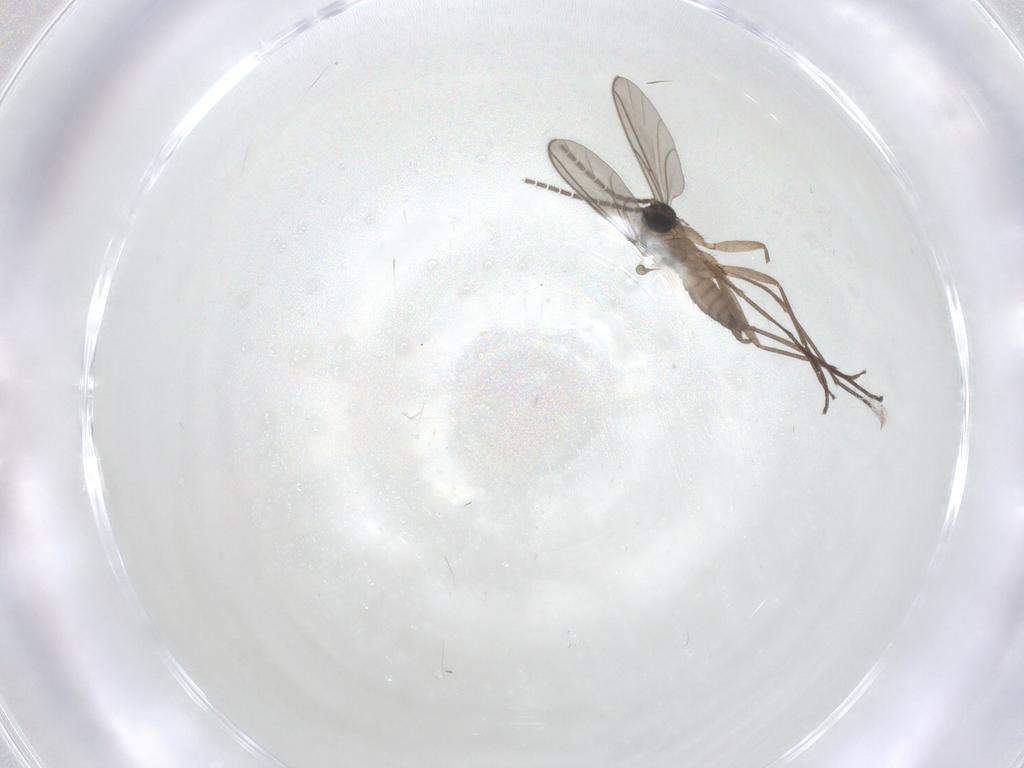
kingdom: Animalia
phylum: Arthropoda
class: Insecta
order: Diptera
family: Sciaridae
